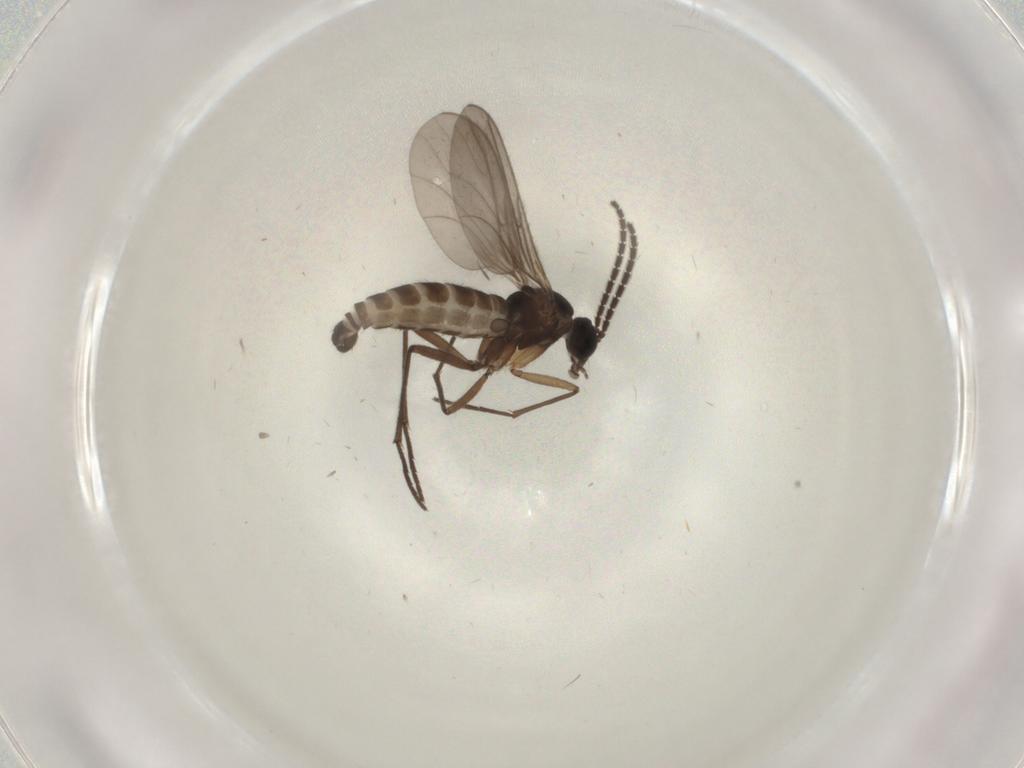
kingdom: Animalia
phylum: Arthropoda
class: Insecta
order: Diptera
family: Sciaridae
